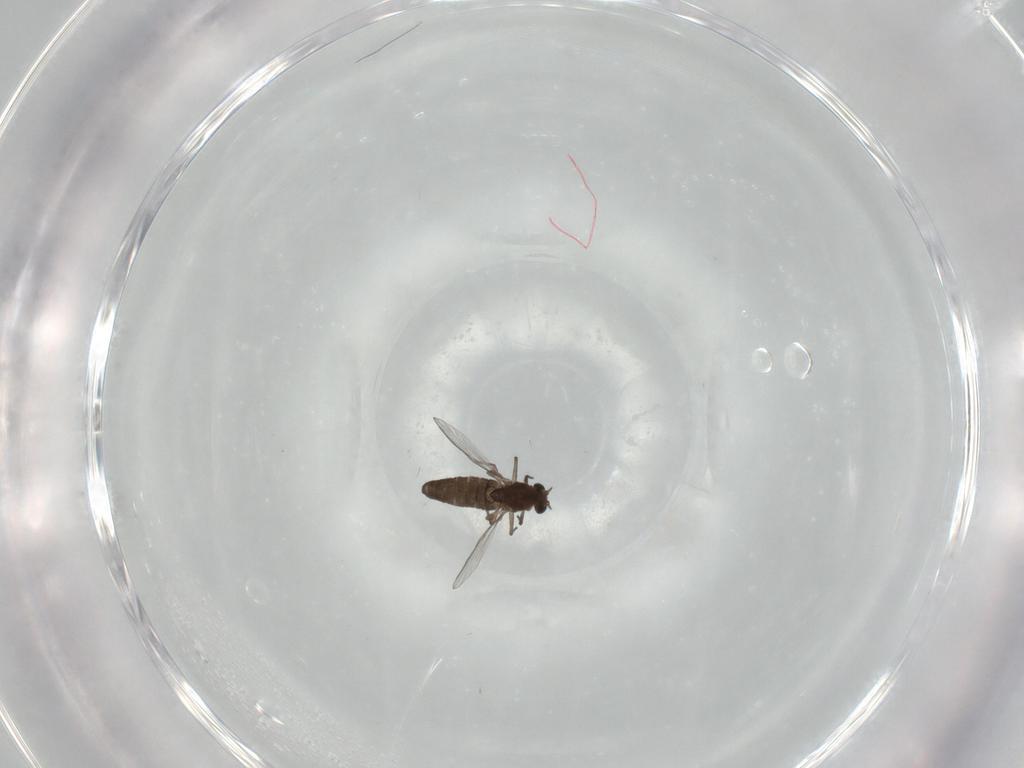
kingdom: Animalia
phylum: Arthropoda
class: Insecta
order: Diptera
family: Chironomidae
